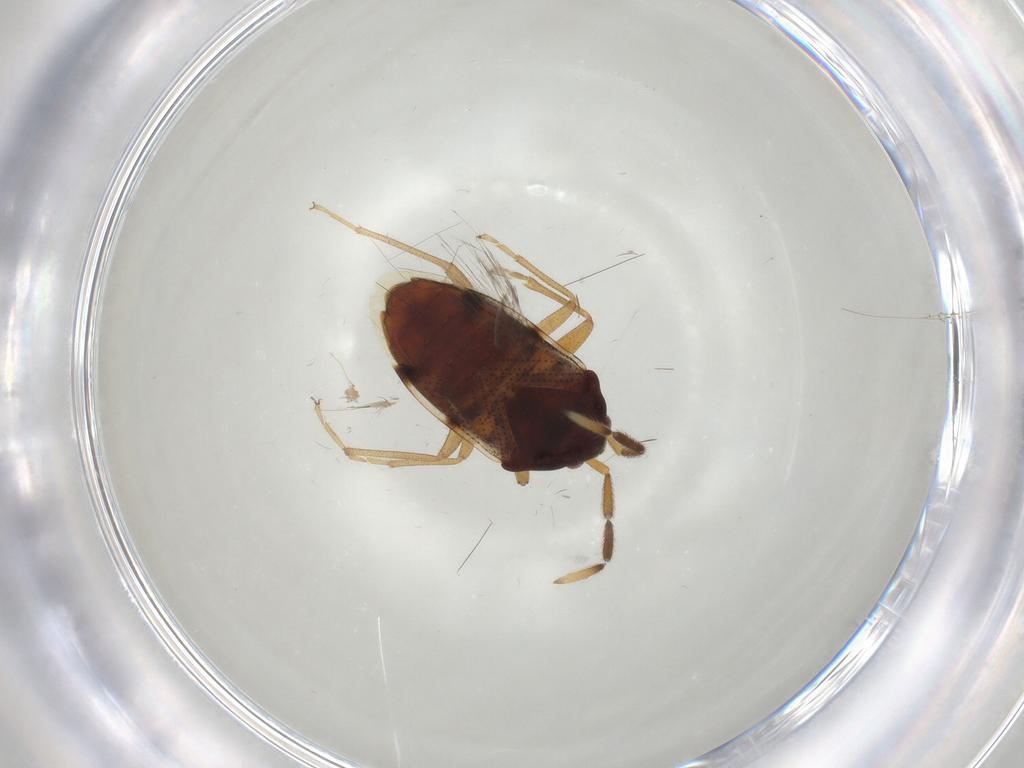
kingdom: Animalia
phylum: Arthropoda
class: Insecta
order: Hemiptera
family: Rhyparochromidae
